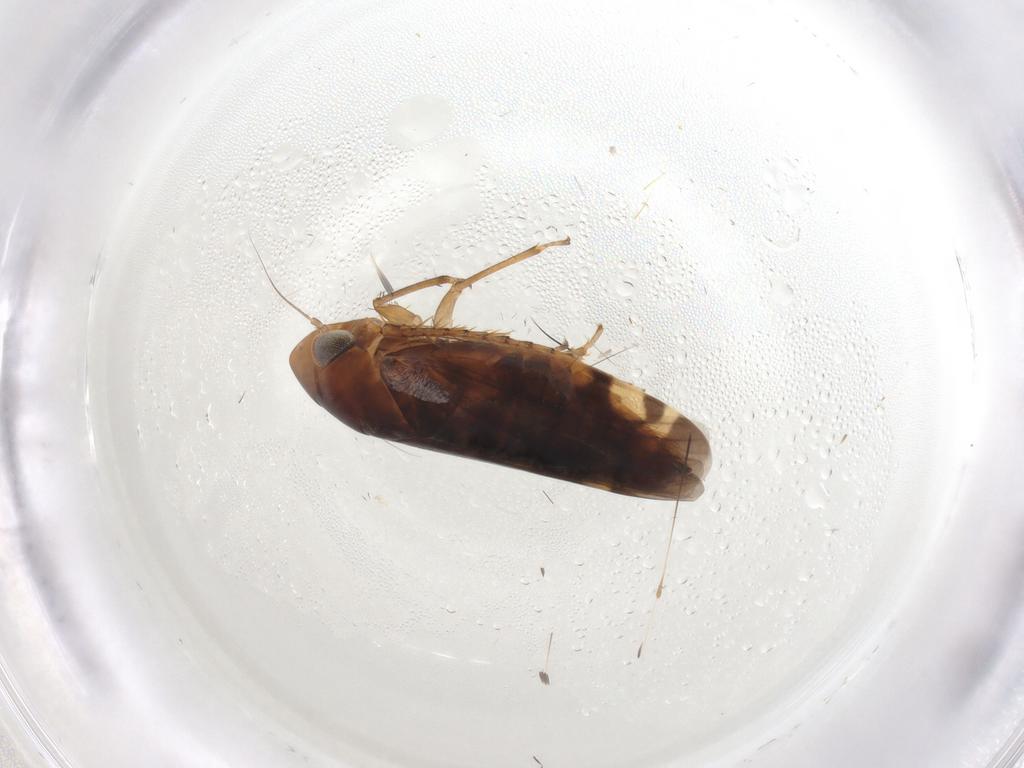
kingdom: Animalia
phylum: Arthropoda
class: Insecta
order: Hemiptera
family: Cicadellidae
